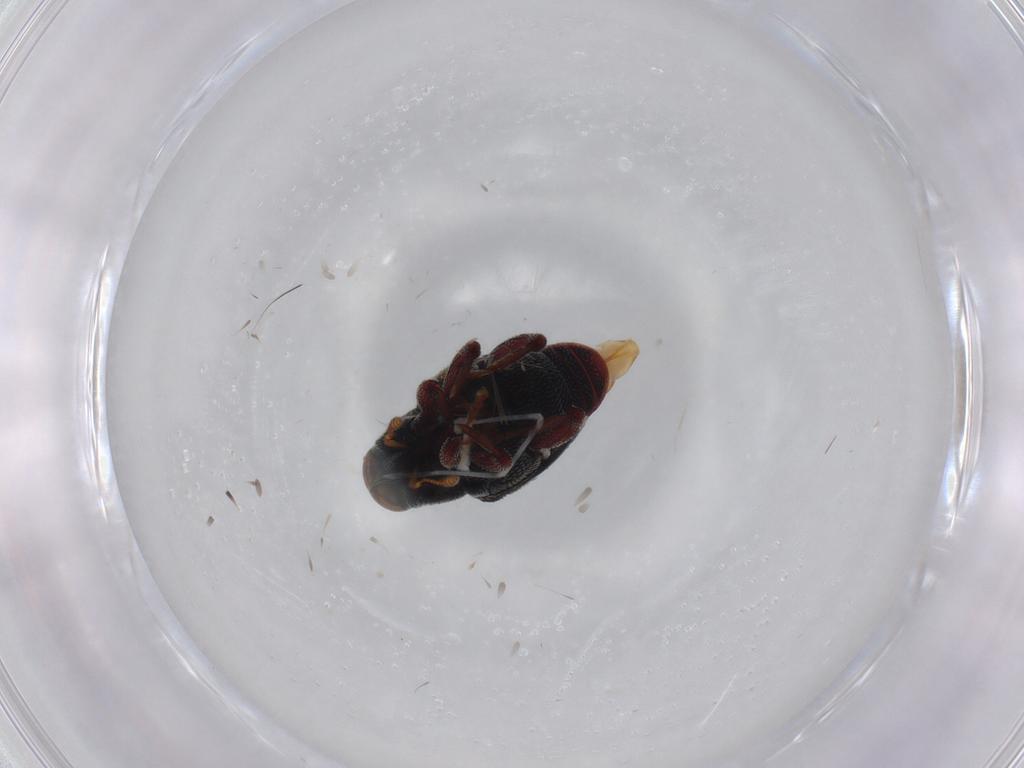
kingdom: Animalia
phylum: Arthropoda
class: Insecta
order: Coleoptera
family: Curculionidae
